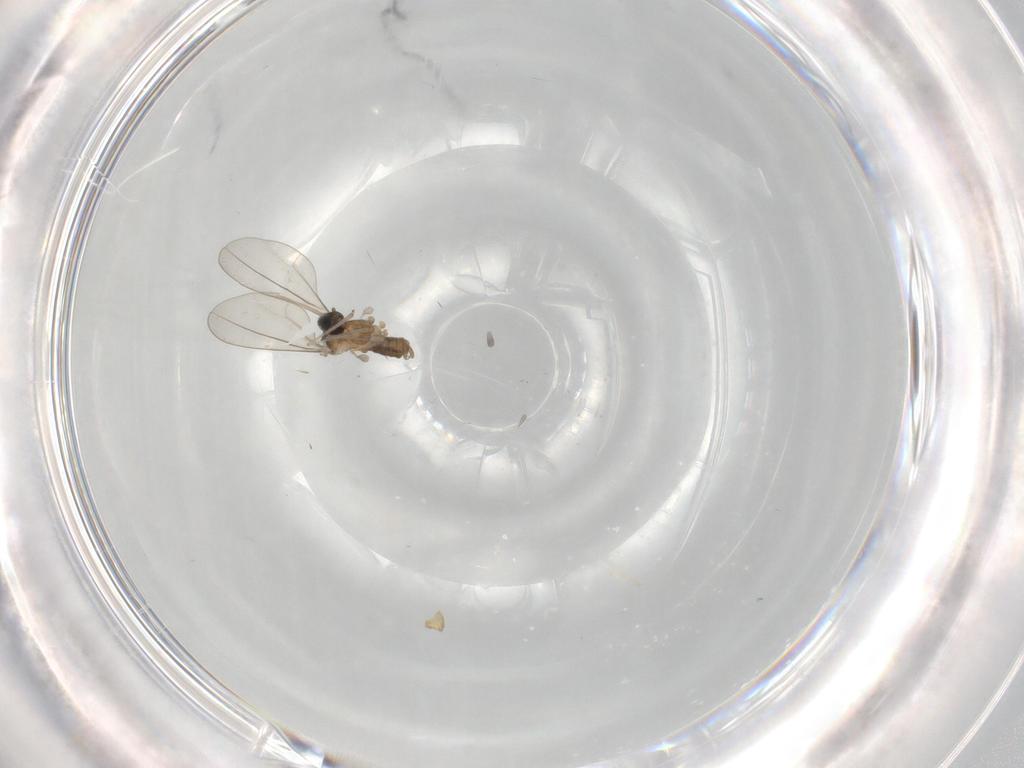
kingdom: Animalia
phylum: Arthropoda
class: Insecta
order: Diptera
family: Cecidomyiidae
